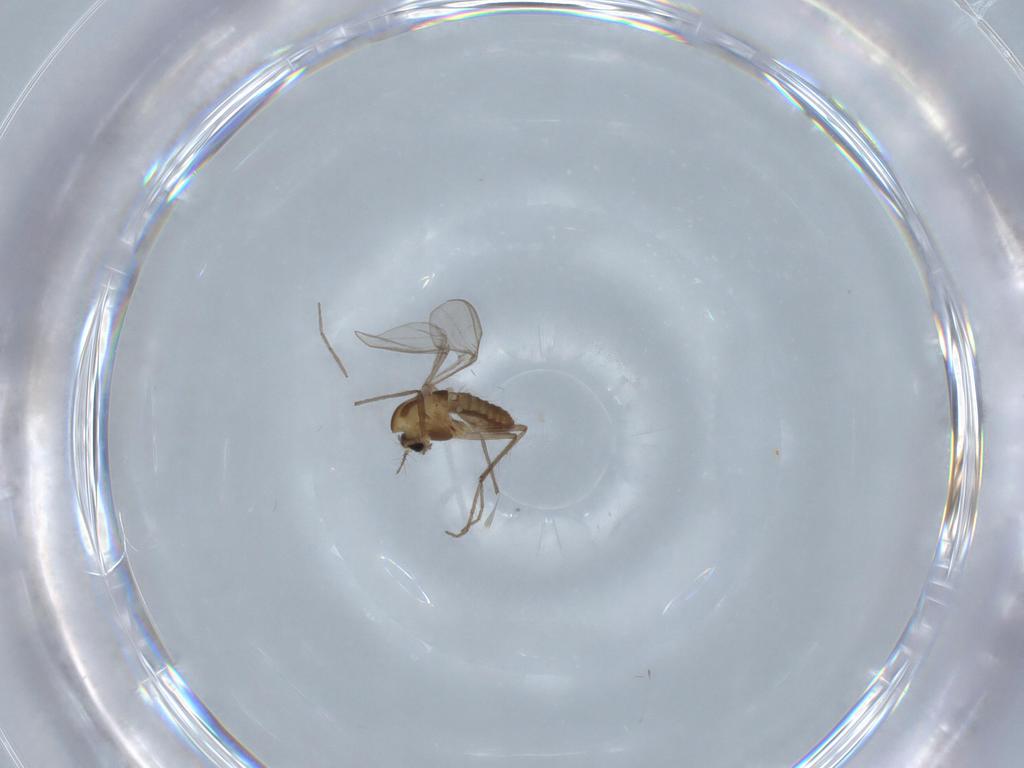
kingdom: Animalia
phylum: Arthropoda
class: Insecta
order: Diptera
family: Chironomidae
